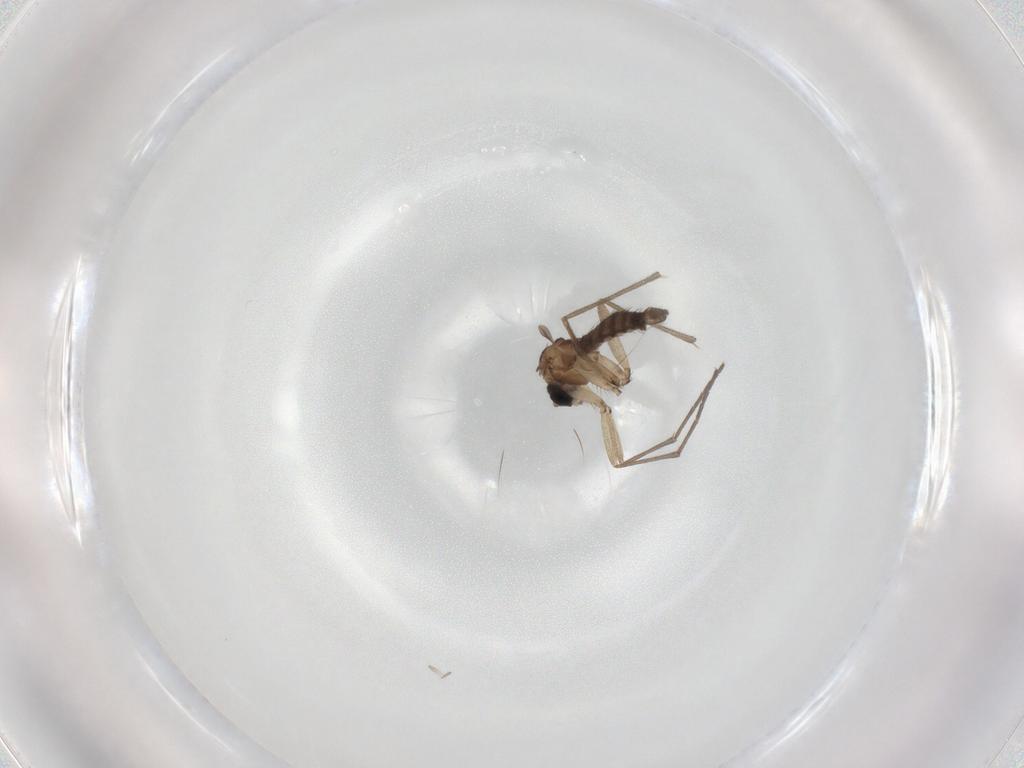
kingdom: Animalia
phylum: Arthropoda
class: Insecta
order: Diptera
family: Sciaridae
